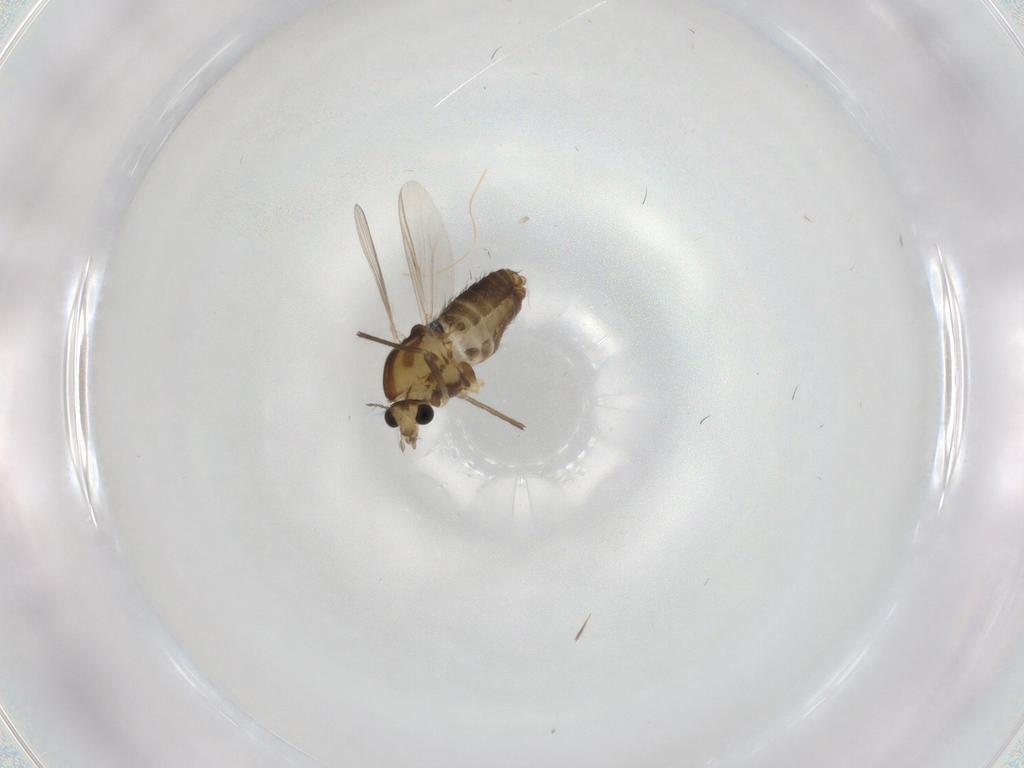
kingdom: Animalia
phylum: Arthropoda
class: Insecta
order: Diptera
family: Chironomidae
